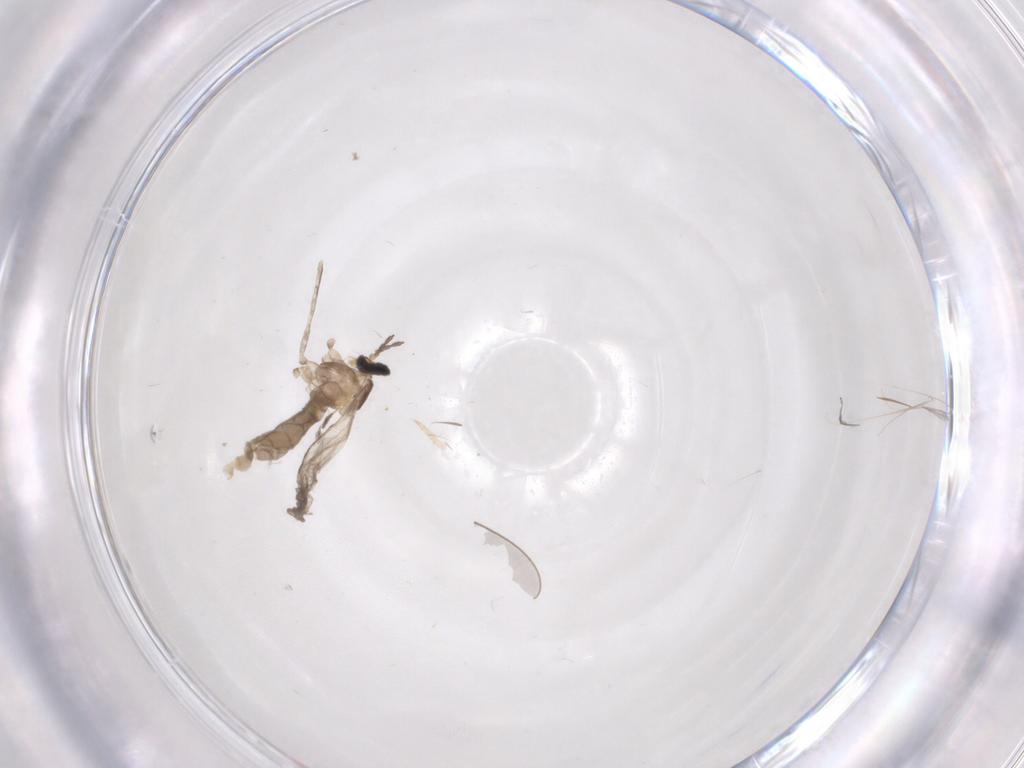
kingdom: Animalia
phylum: Arthropoda
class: Insecta
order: Diptera
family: Cecidomyiidae
